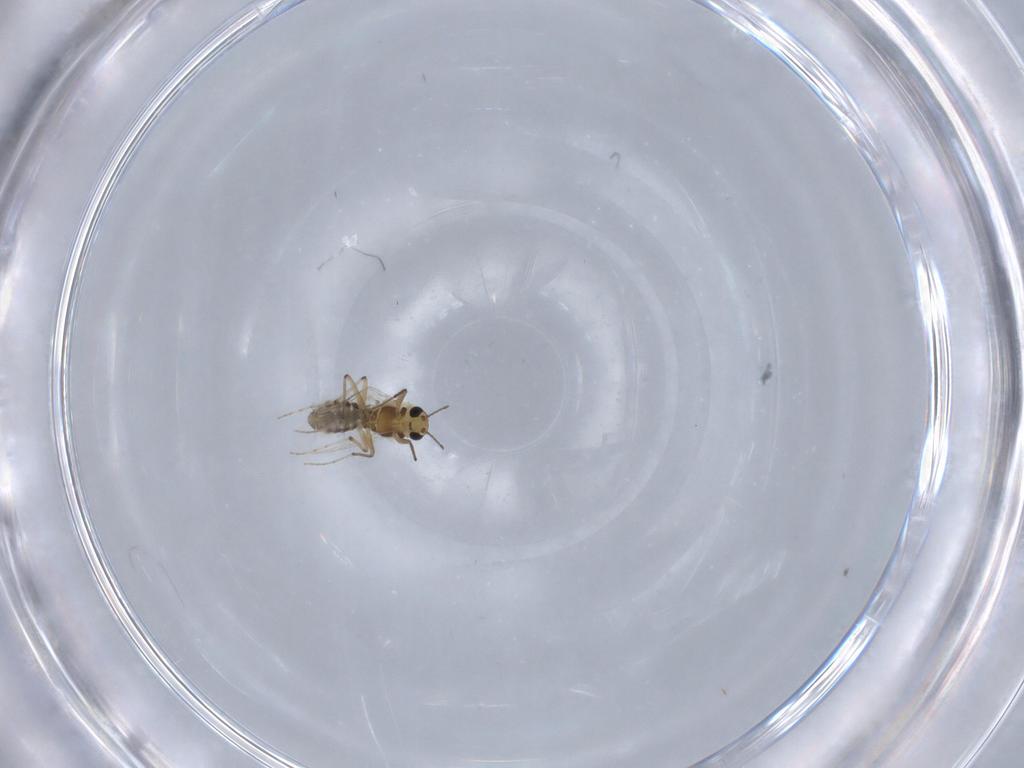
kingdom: Animalia
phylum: Arthropoda
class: Insecta
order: Diptera
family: Chironomidae
